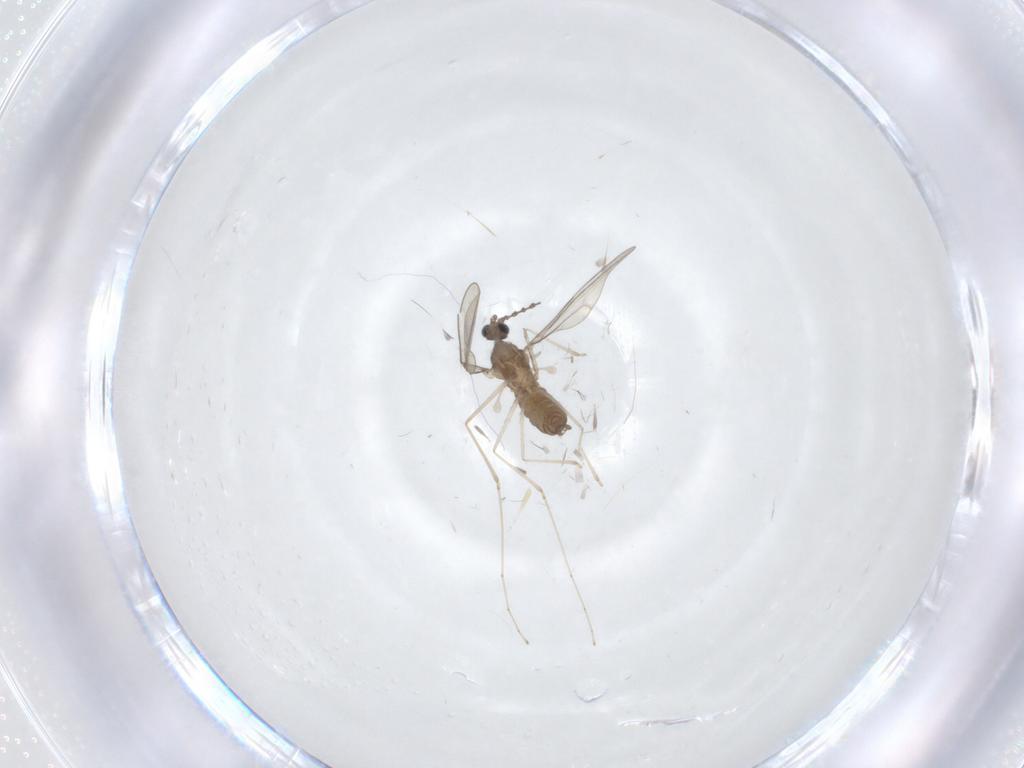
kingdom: Animalia
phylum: Arthropoda
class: Insecta
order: Diptera
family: Cecidomyiidae
